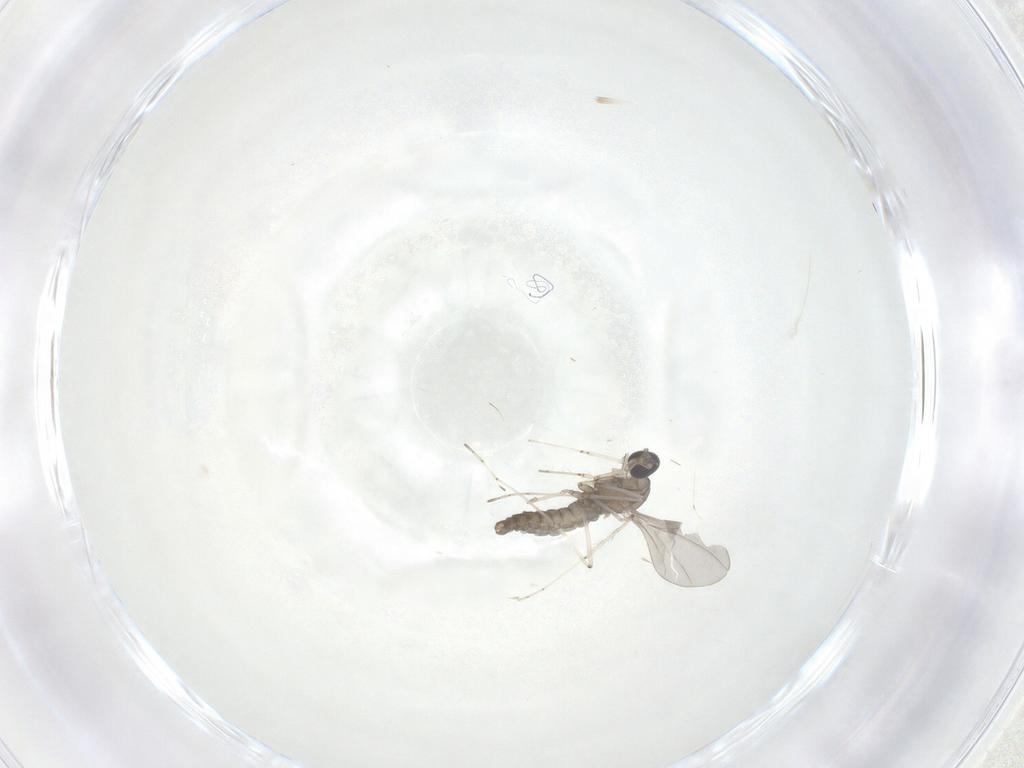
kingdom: Animalia
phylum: Arthropoda
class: Insecta
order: Diptera
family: Cecidomyiidae
